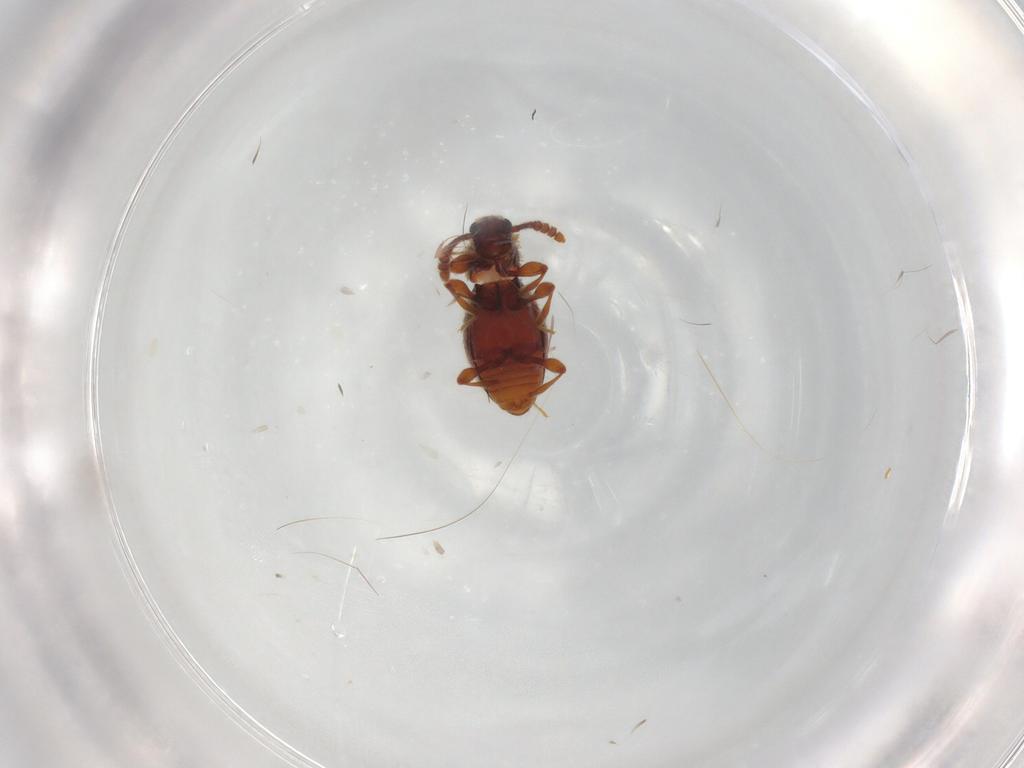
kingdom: Animalia
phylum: Arthropoda
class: Insecta
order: Coleoptera
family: Staphylinidae
